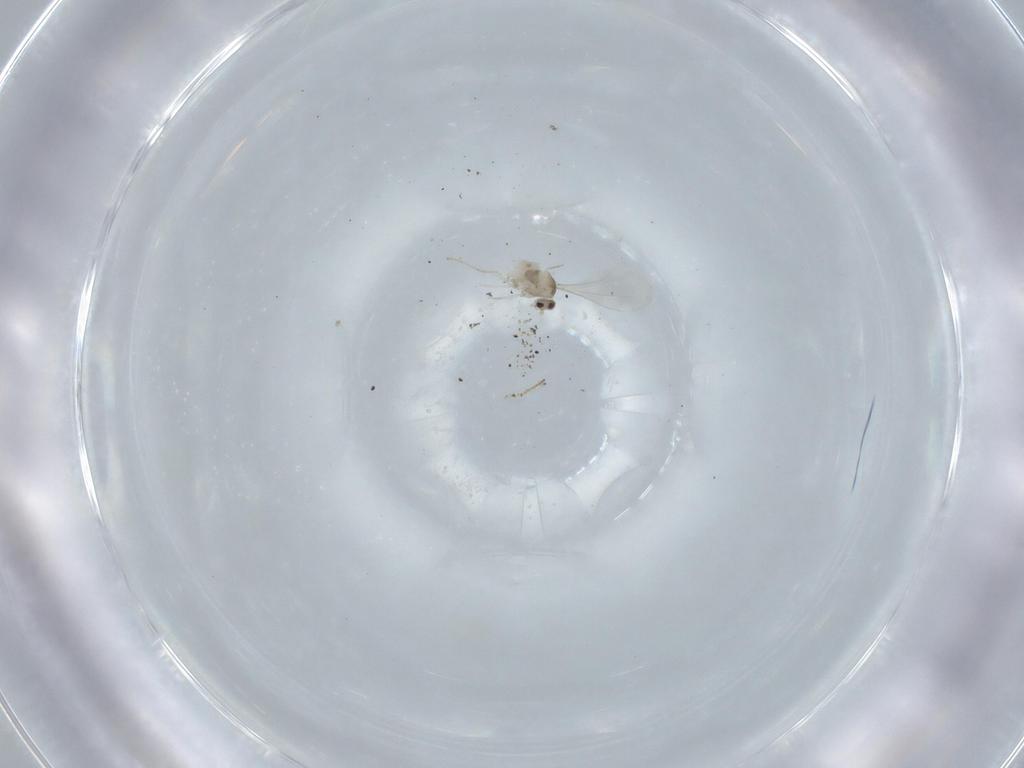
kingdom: Animalia
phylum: Arthropoda
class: Insecta
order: Diptera
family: Cecidomyiidae
